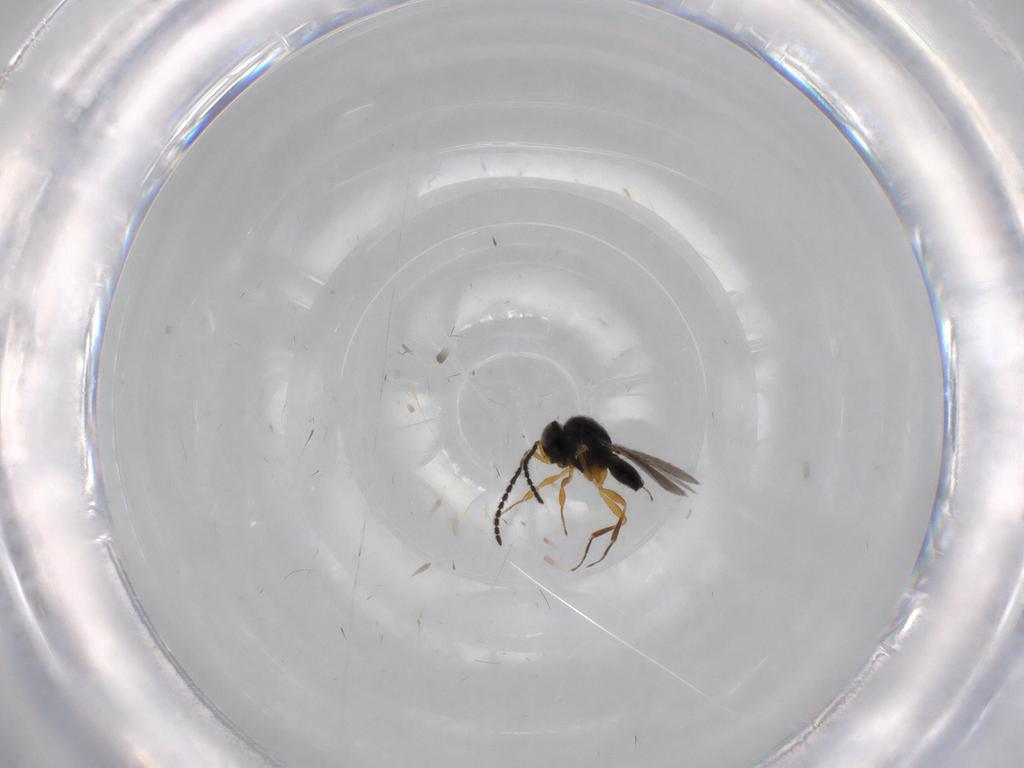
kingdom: Animalia
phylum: Arthropoda
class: Insecta
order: Hymenoptera
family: Scelionidae
